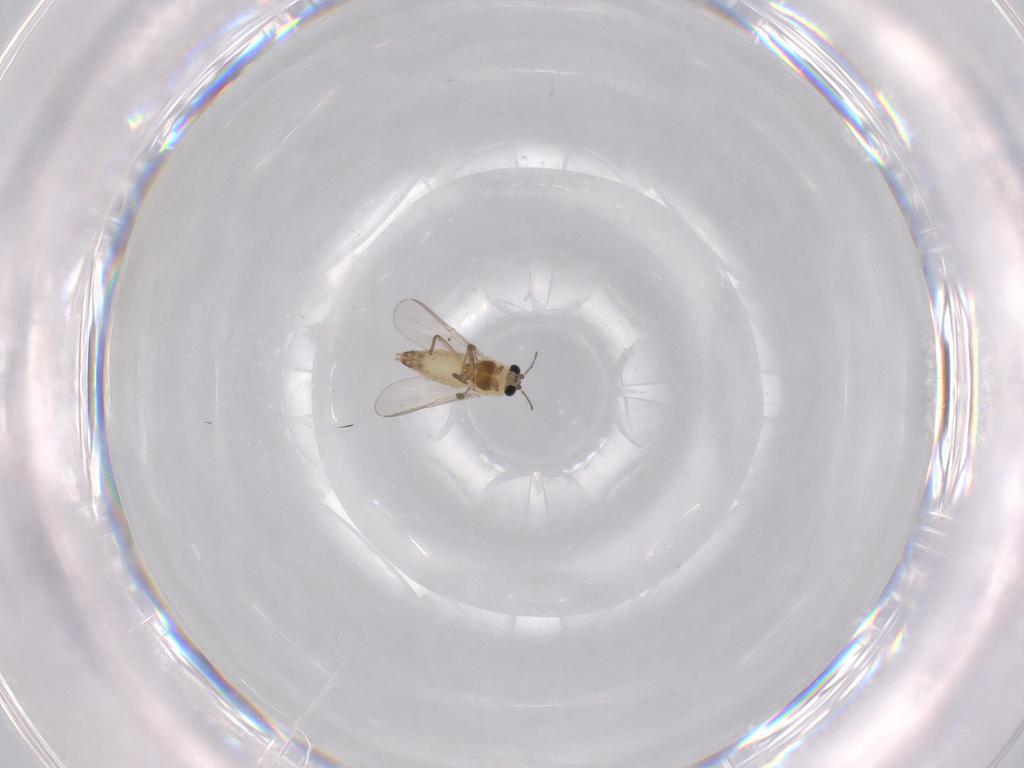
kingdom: Animalia
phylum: Arthropoda
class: Insecta
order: Diptera
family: Chironomidae
